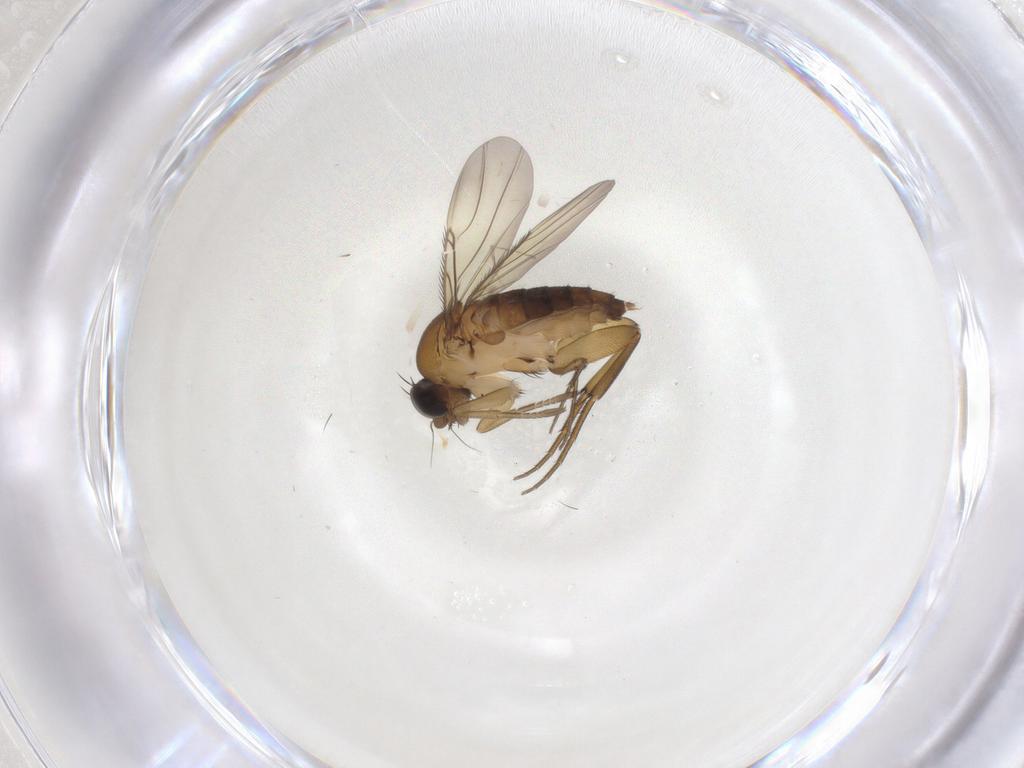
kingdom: Animalia
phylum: Arthropoda
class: Insecta
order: Diptera
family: Phoridae
